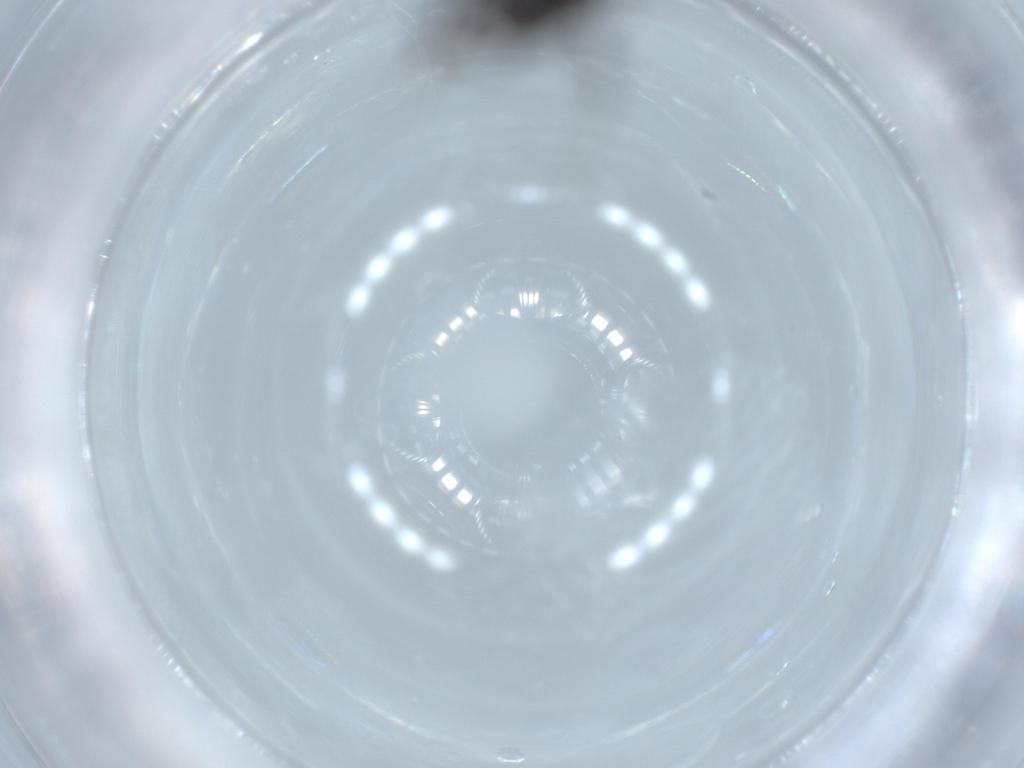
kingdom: Animalia
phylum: Arthropoda
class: Insecta
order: Hymenoptera
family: Formicidae
